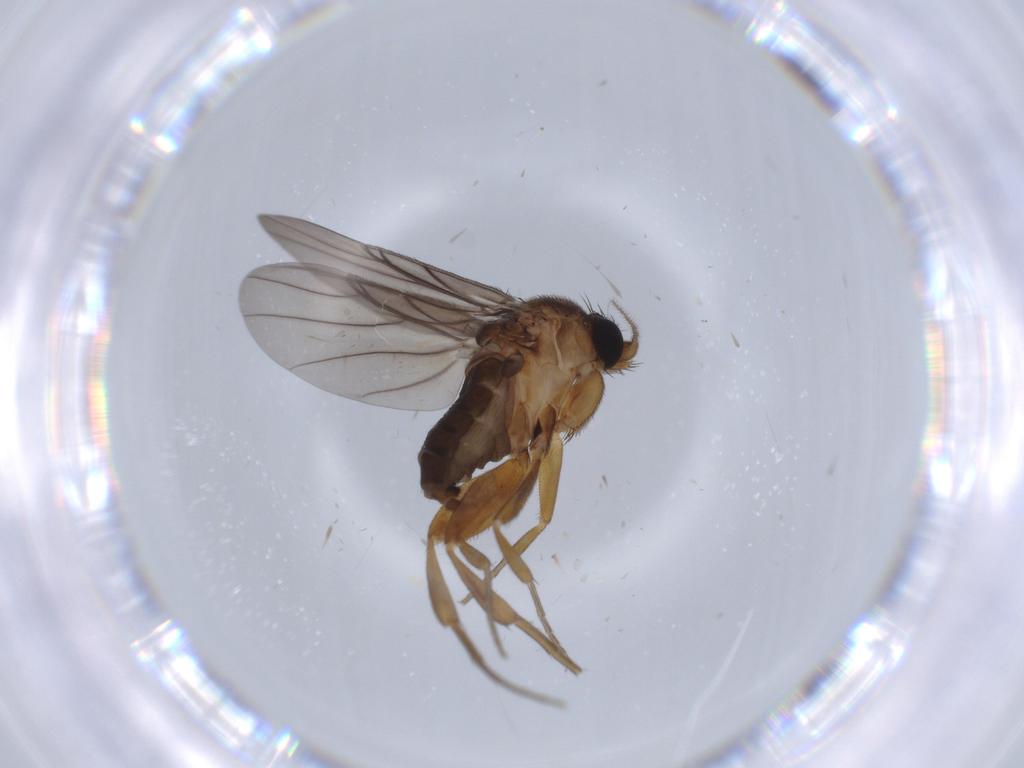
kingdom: Animalia
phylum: Arthropoda
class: Insecta
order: Diptera
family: Phoridae
